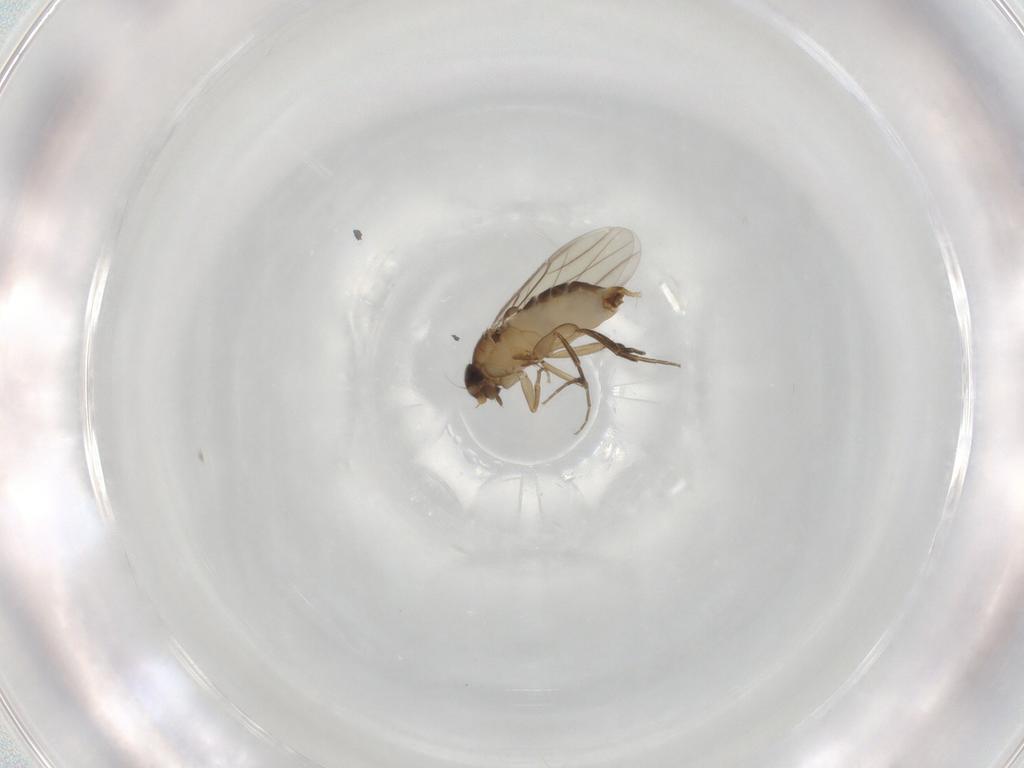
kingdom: Animalia
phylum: Arthropoda
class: Insecta
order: Diptera
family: Phoridae
